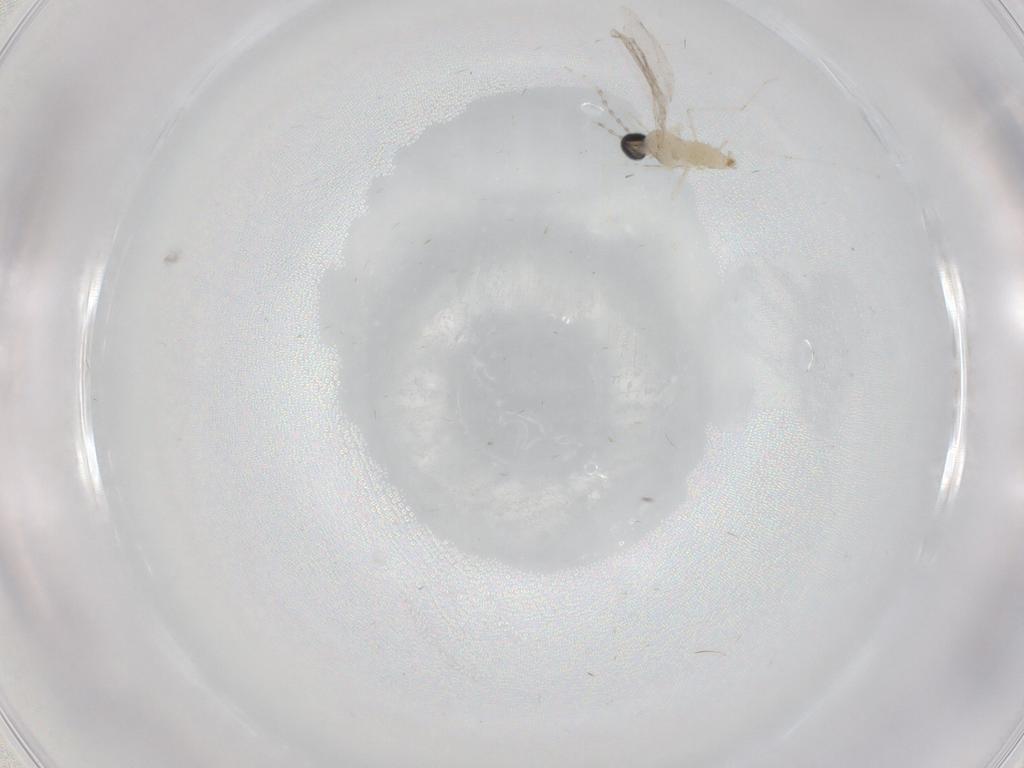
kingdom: Animalia
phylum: Arthropoda
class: Insecta
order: Diptera
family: Cecidomyiidae
